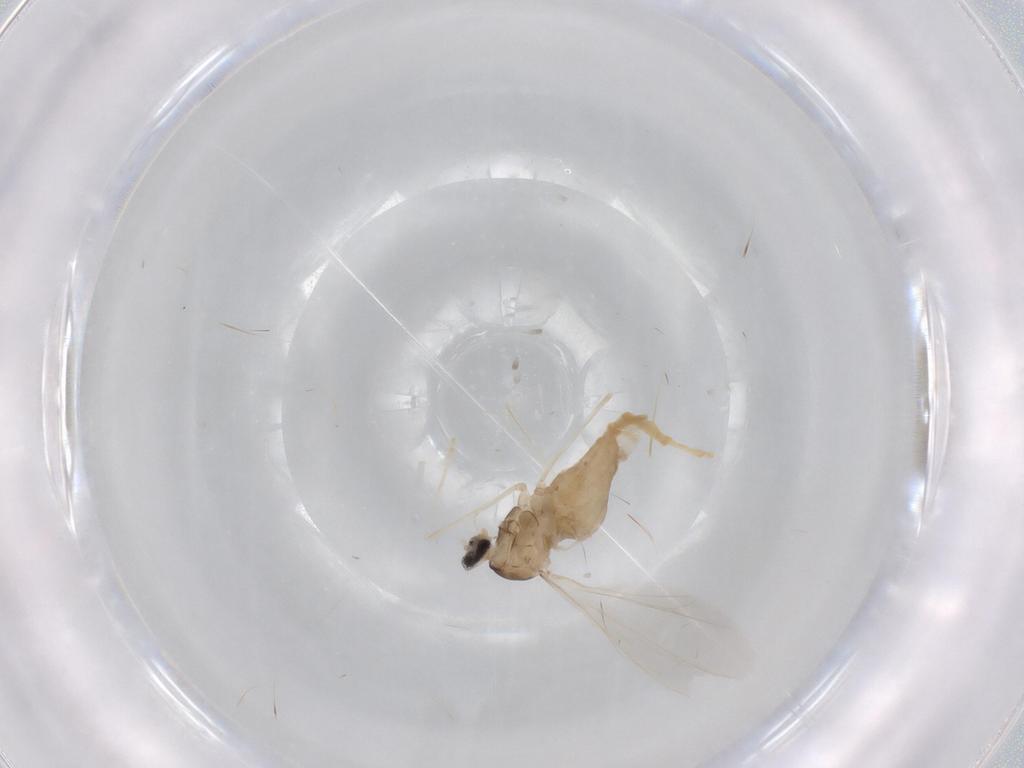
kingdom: Animalia
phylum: Arthropoda
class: Insecta
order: Diptera
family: Cecidomyiidae
